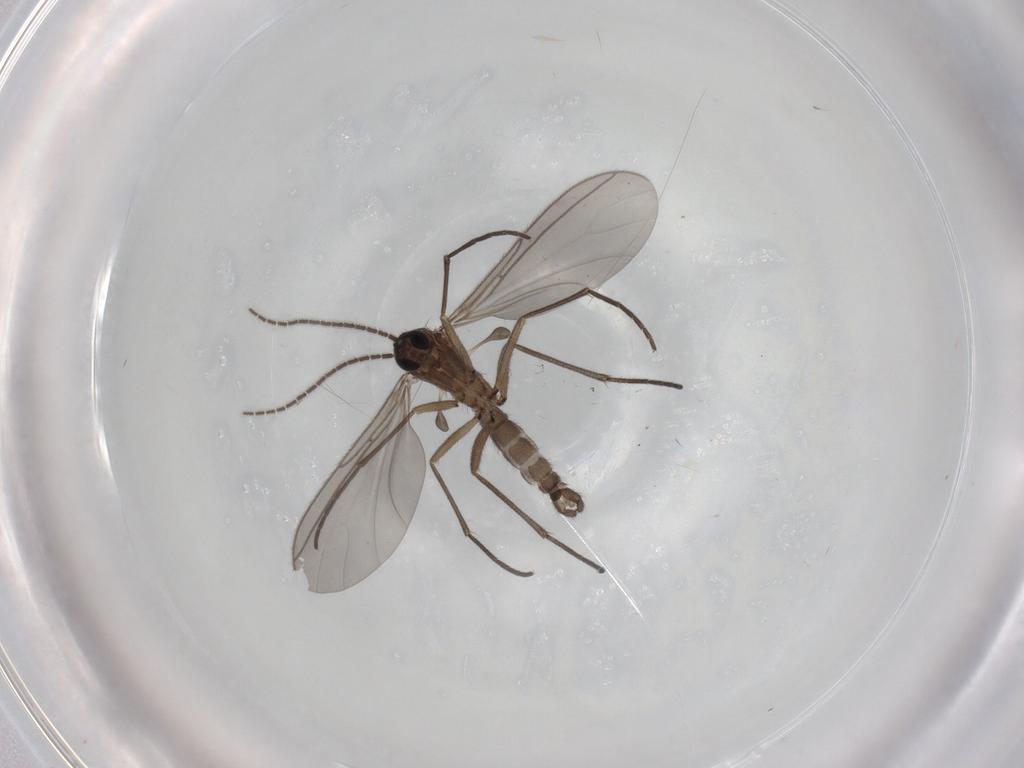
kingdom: Animalia
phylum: Arthropoda
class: Insecta
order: Diptera
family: Sciaridae
